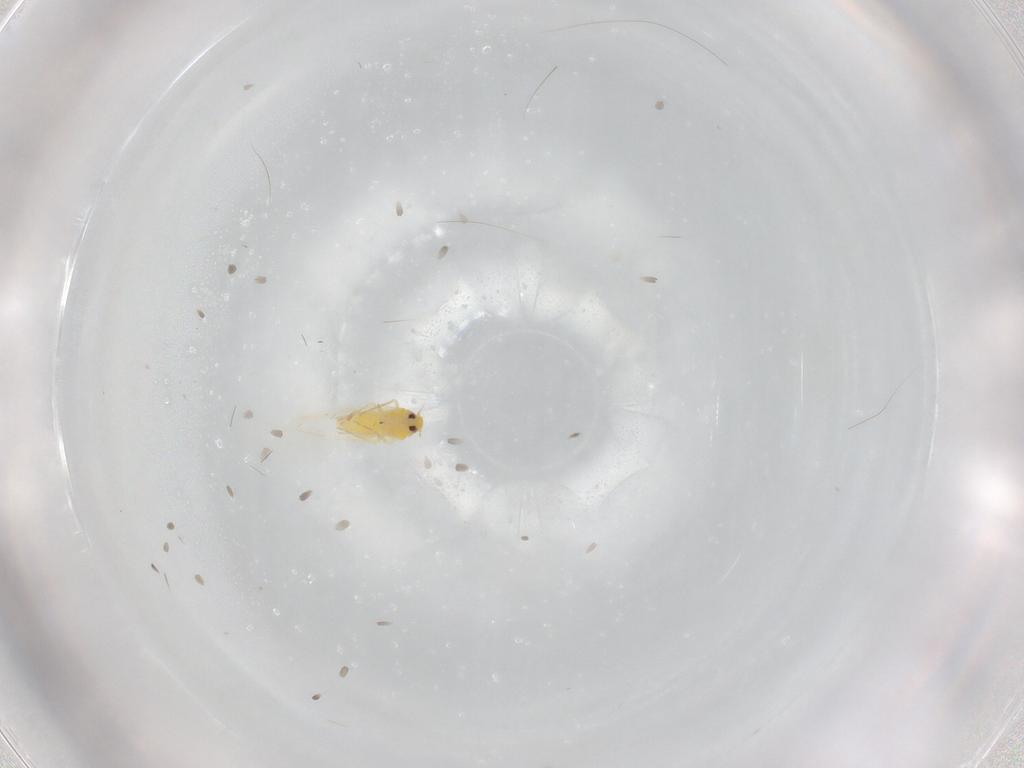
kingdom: Animalia
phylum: Arthropoda
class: Insecta
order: Hemiptera
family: Aleyrodidae
